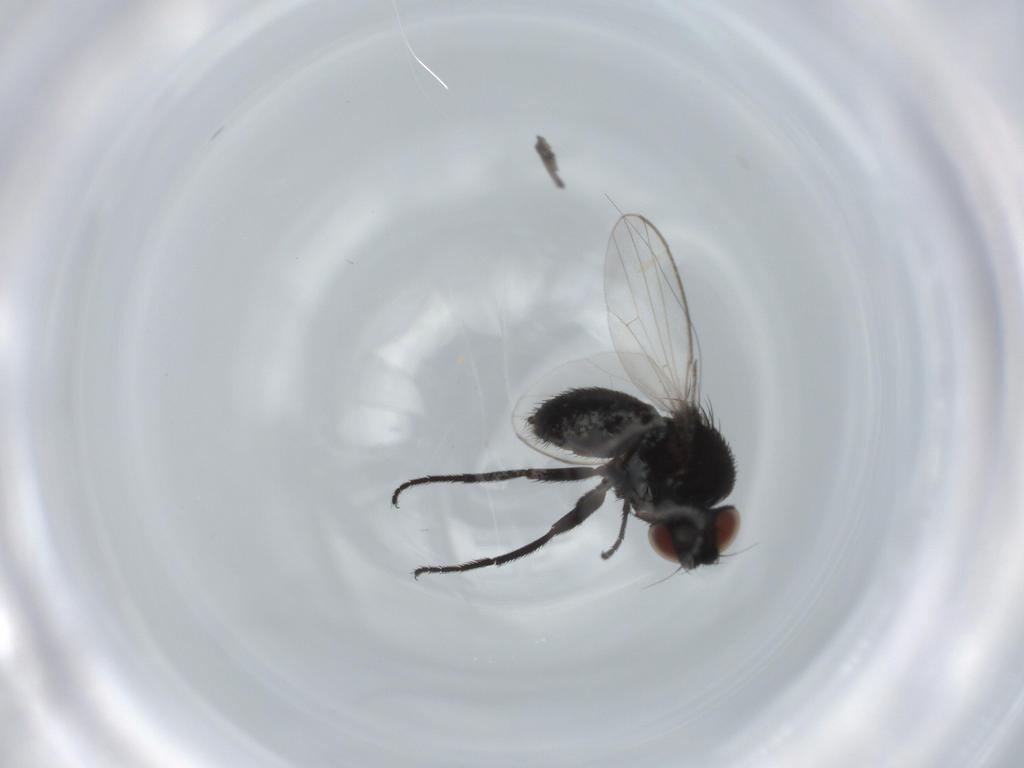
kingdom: Animalia
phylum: Arthropoda
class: Insecta
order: Diptera
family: Milichiidae
